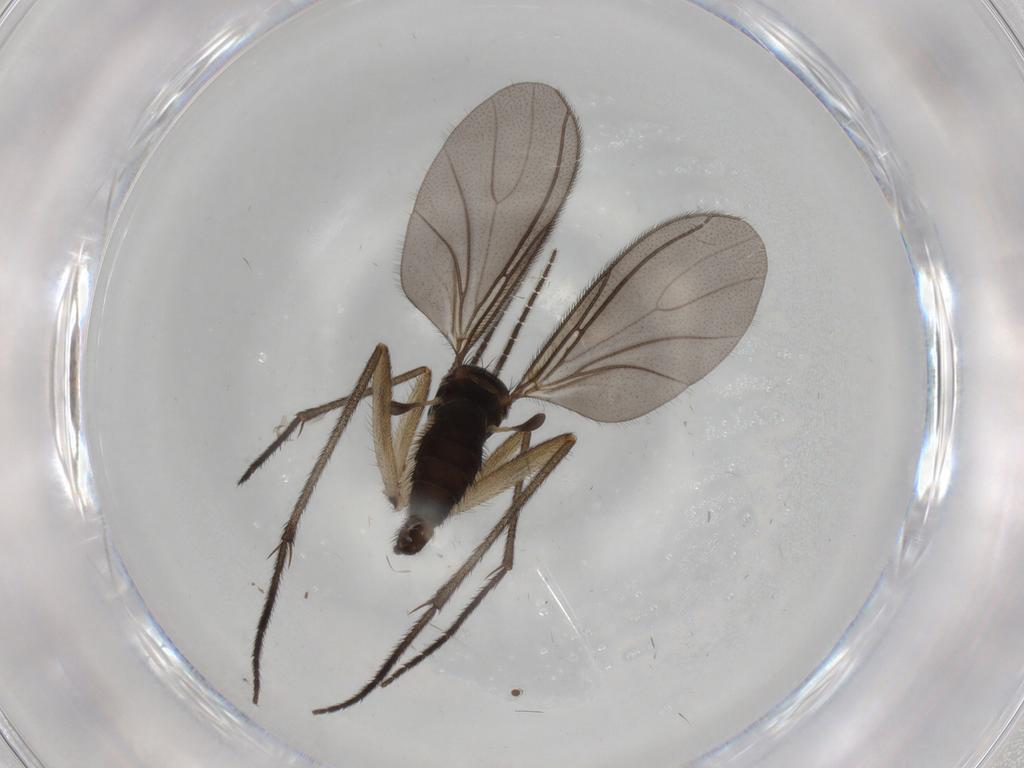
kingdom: Animalia
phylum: Arthropoda
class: Insecta
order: Diptera
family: Sciaridae
